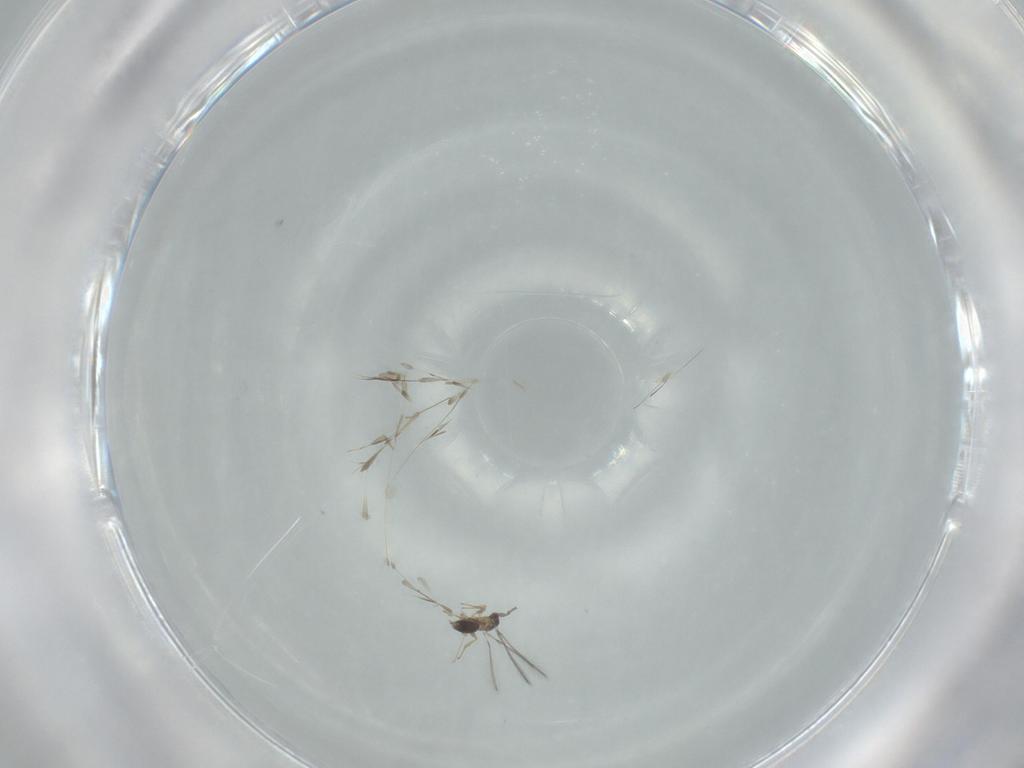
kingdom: Animalia
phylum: Arthropoda
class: Insecta
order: Hymenoptera
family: Mymaridae
